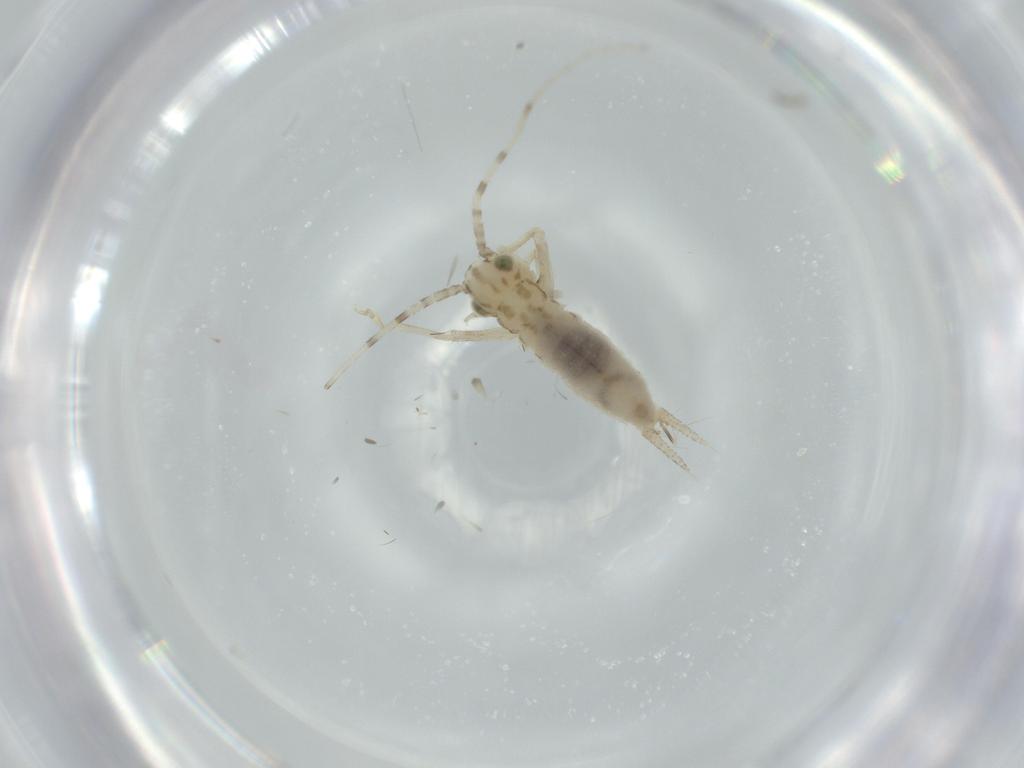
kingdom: Animalia
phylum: Arthropoda
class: Insecta
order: Orthoptera
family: Trigonidiidae
